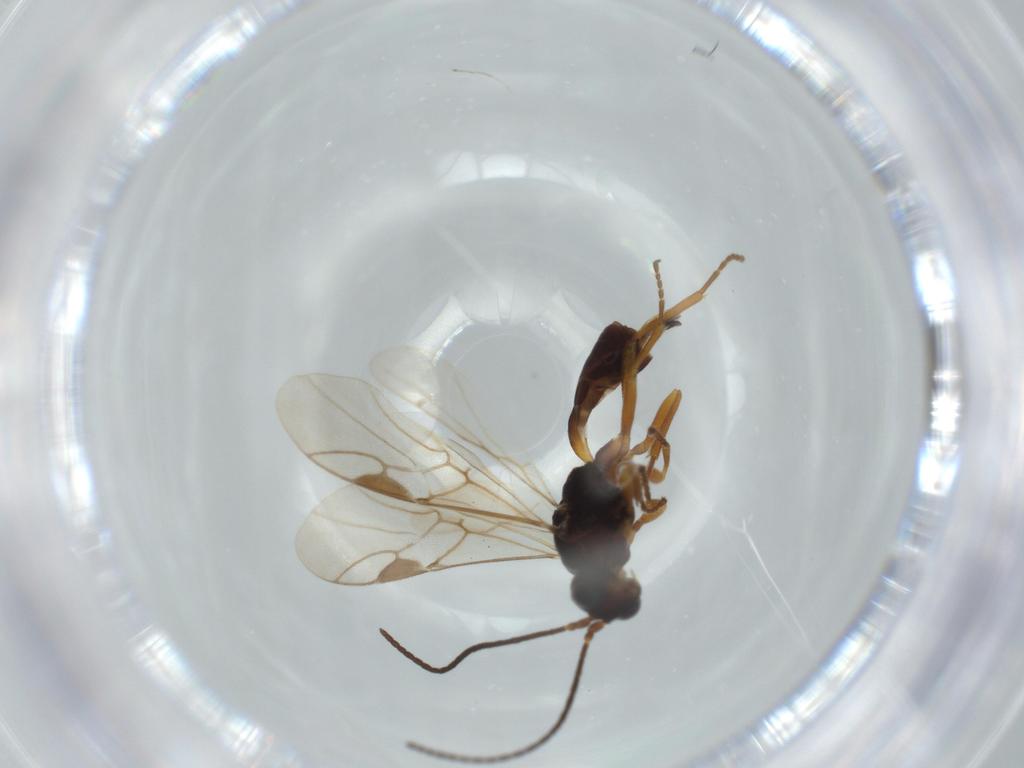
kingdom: Animalia
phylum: Arthropoda
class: Insecta
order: Hymenoptera
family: Braconidae
